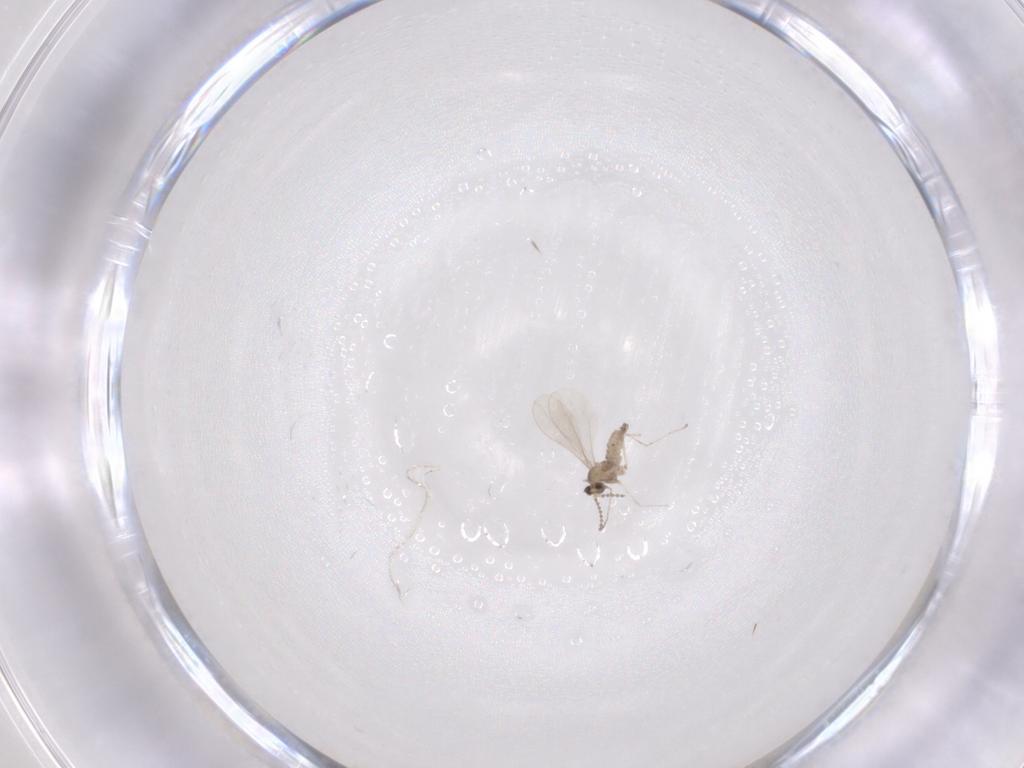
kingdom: Animalia
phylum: Arthropoda
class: Insecta
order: Diptera
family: Cecidomyiidae
